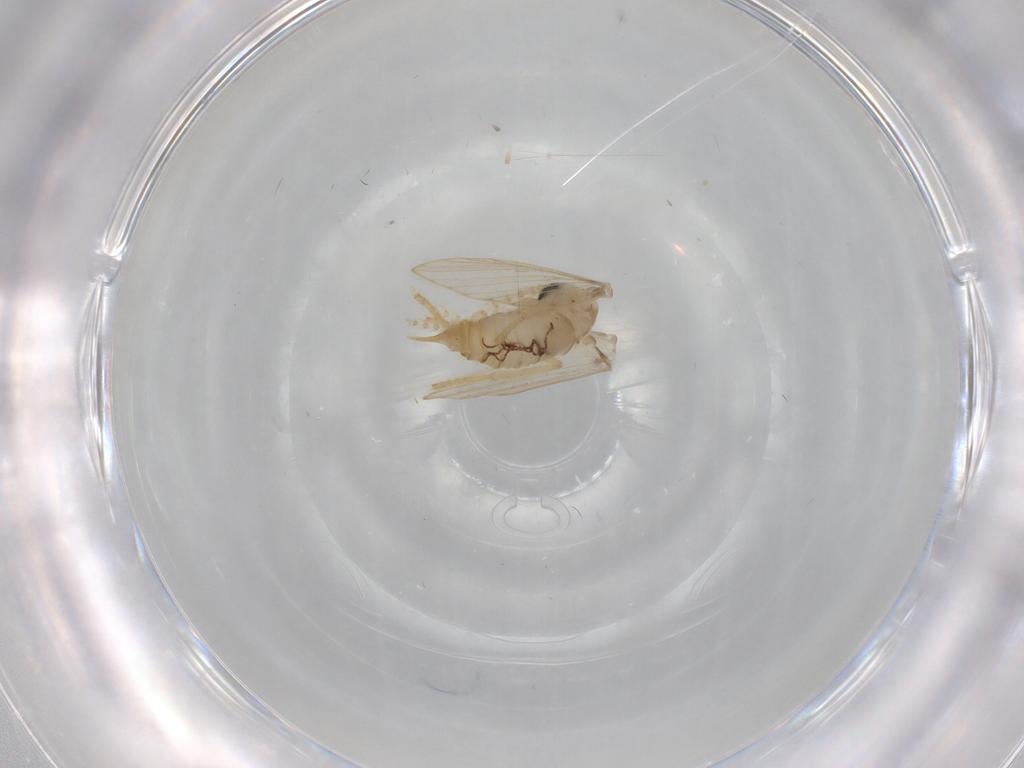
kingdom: Animalia
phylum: Arthropoda
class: Insecta
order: Diptera
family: Psychodidae
